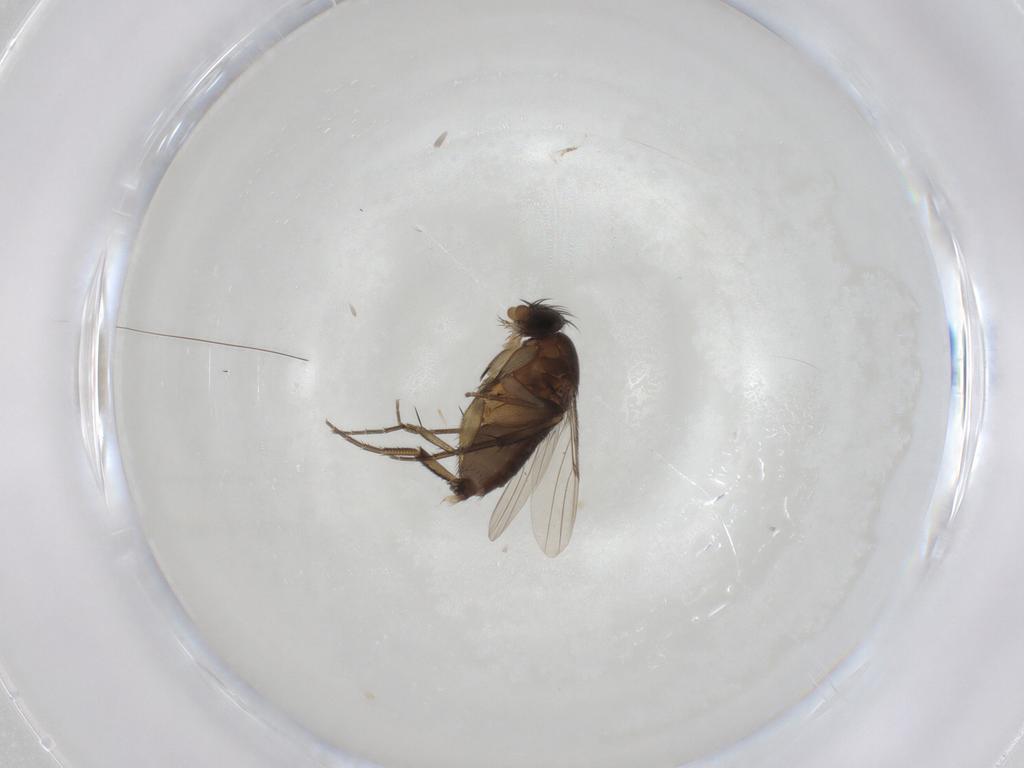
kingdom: Animalia
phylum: Arthropoda
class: Insecta
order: Diptera
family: Phoridae
